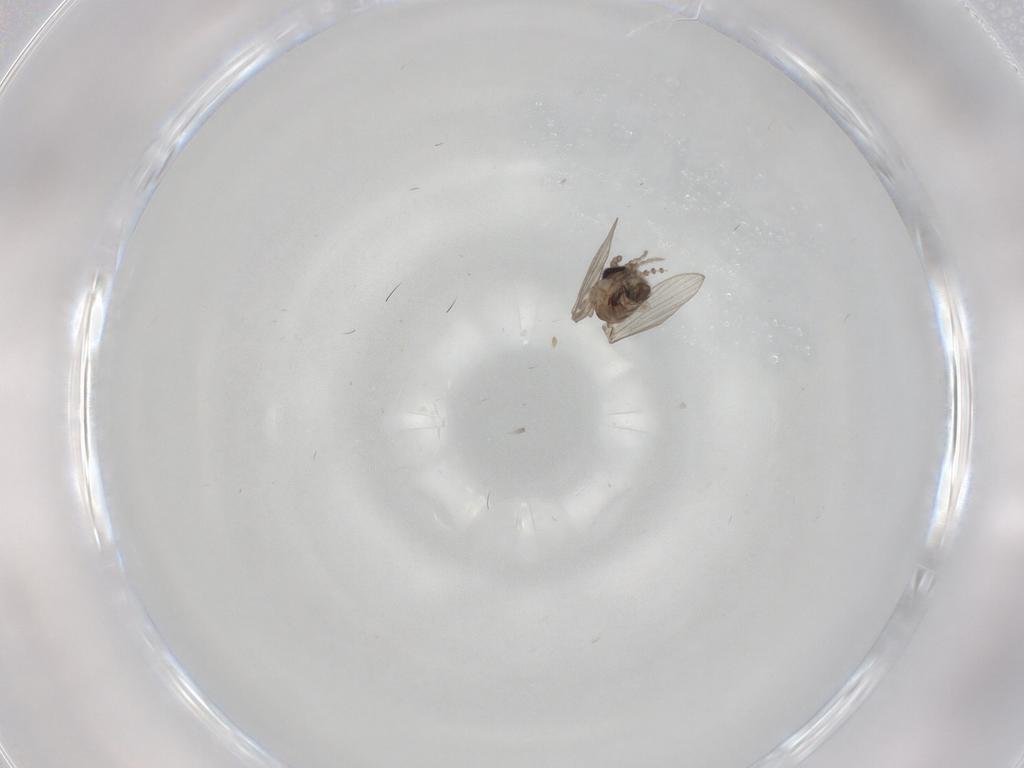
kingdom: Animalia
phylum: Arthropoda
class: Insecta
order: Diptera
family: Psychodidae
